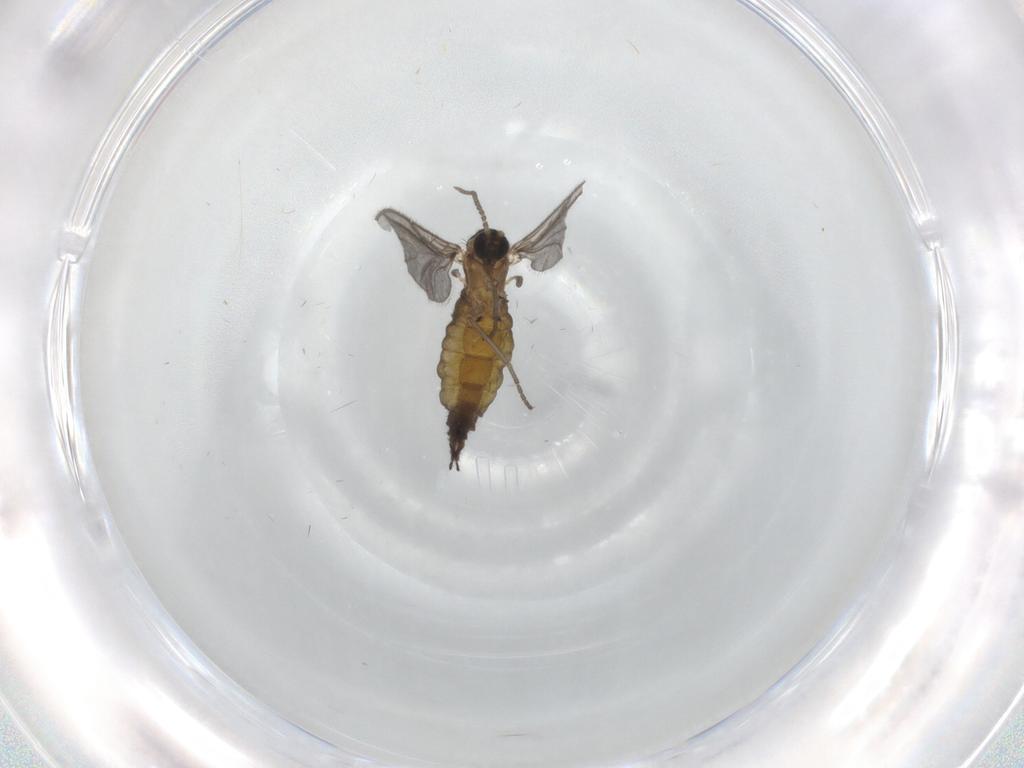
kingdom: Animalia
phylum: Arthropoda
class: Insecta
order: Diptera
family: Sciaridae
